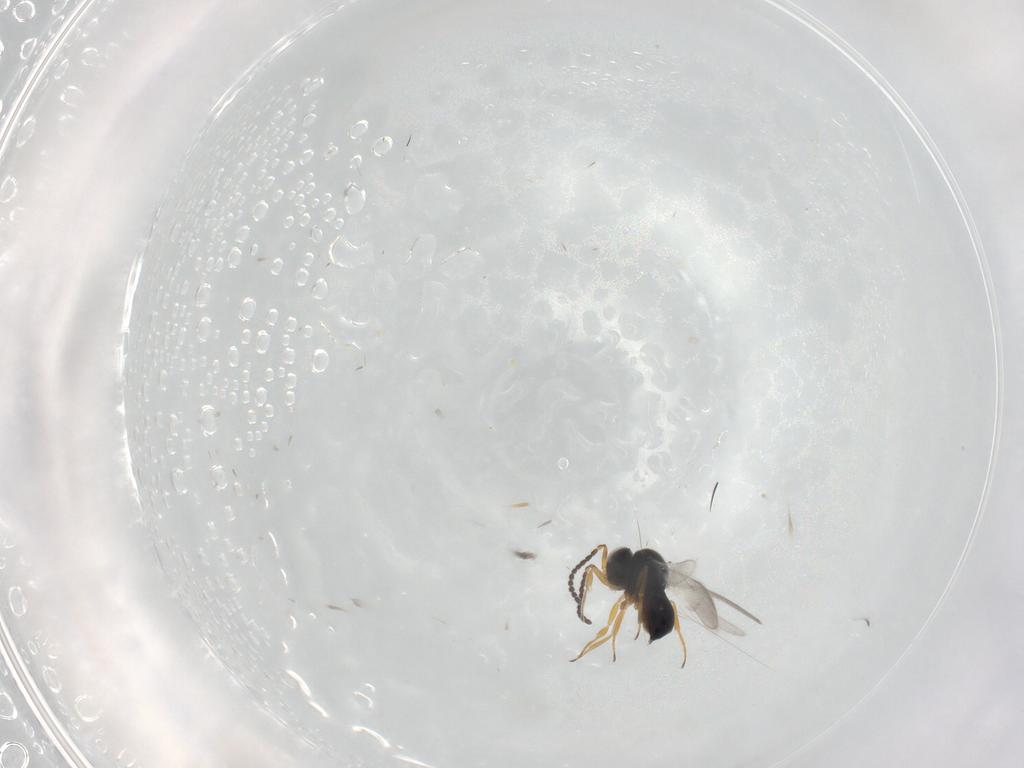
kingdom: Animalia
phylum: Arthropoda
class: Insecta
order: Hymenoptera
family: Scelionidae
